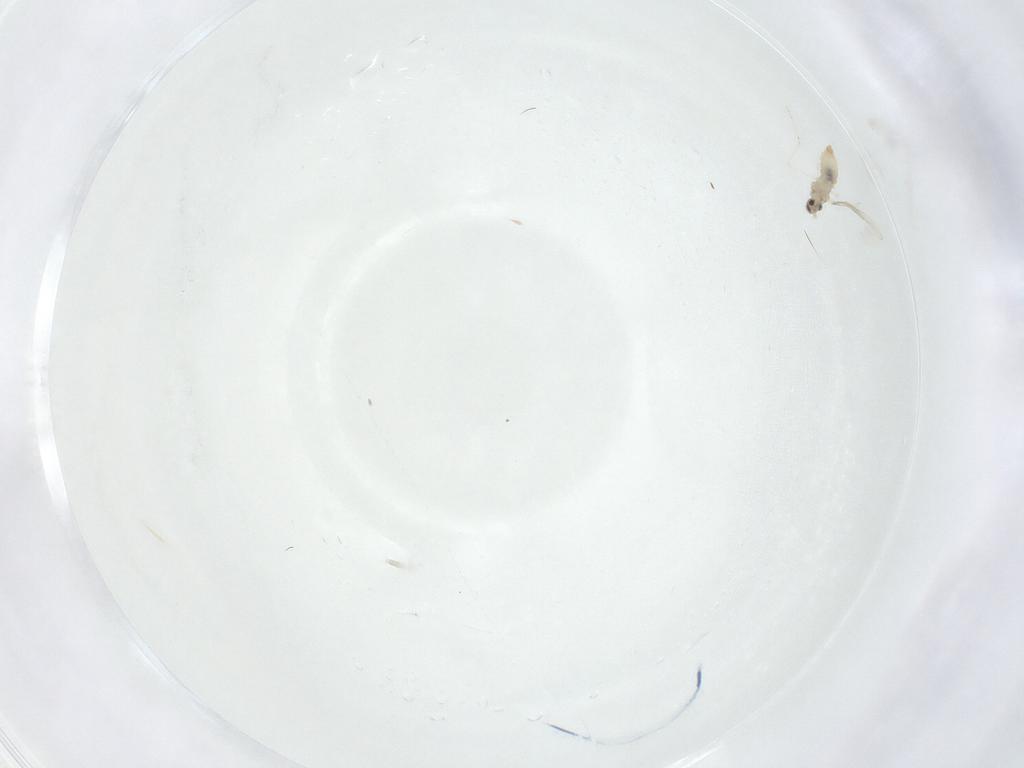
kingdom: Animalia
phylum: Arthropoda
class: Insecta
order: Diptera
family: Cecidomyiidae
